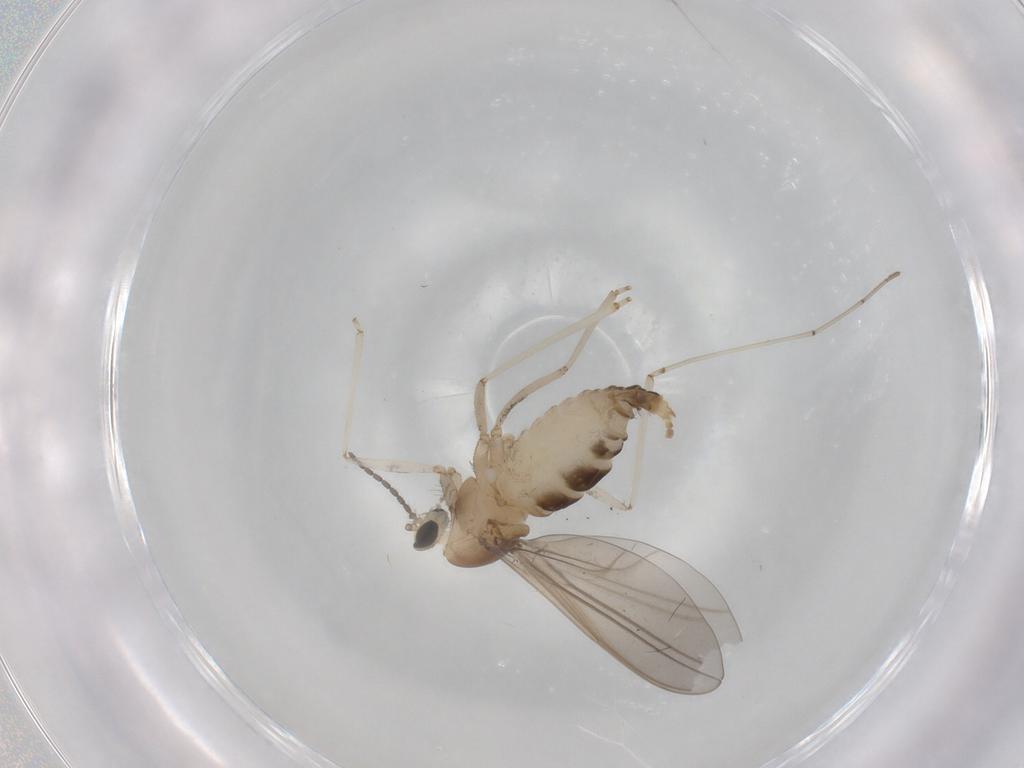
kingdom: Animalia
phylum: Arthropoda
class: Insecta
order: Diptera
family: Cecidomyiidae
